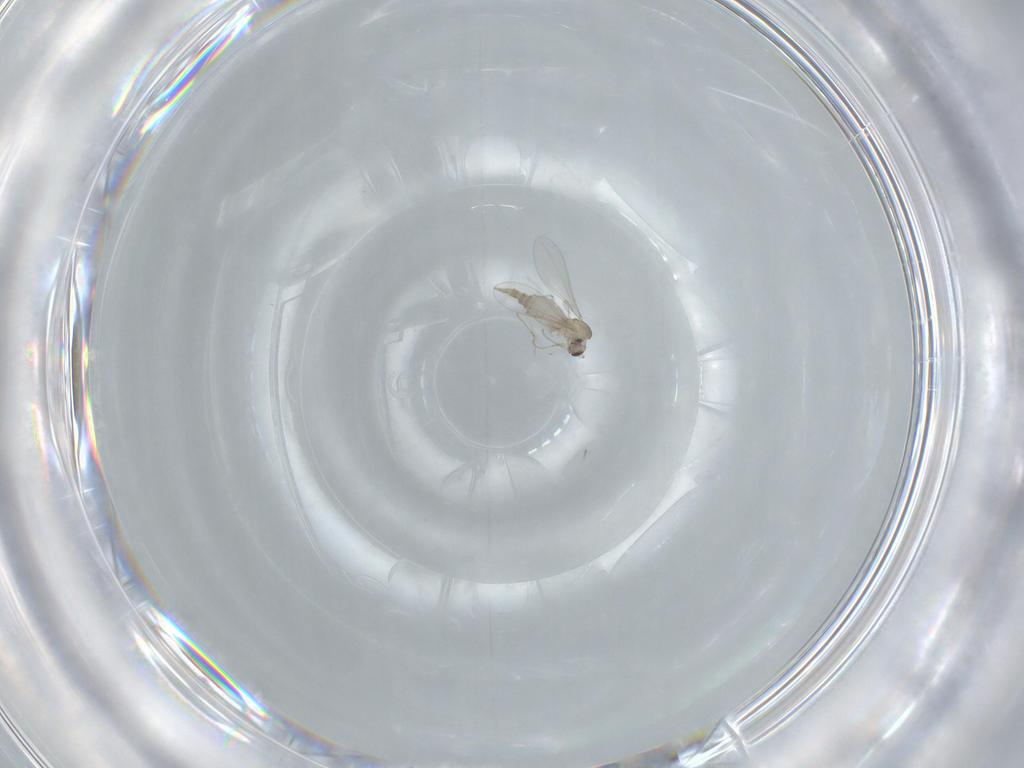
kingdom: Animalia
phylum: Arthropoda
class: Insecta
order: Diptera
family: Cecidomyiidae
